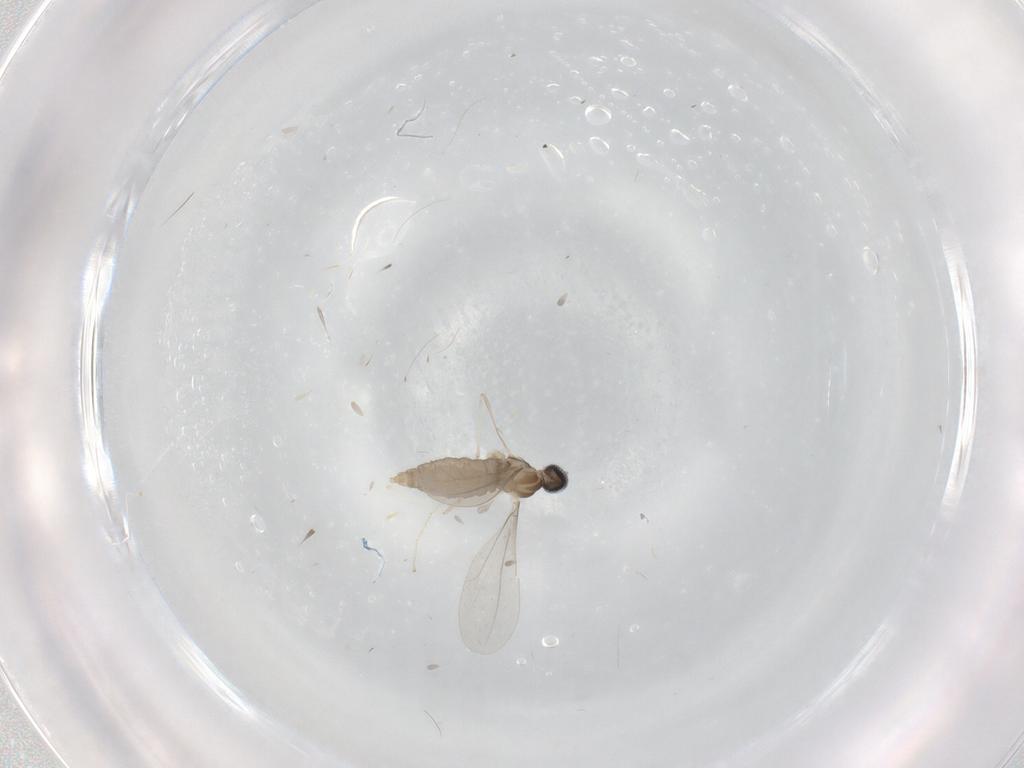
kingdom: Animalia
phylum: Arthropoda
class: Insecta
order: Diptera
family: Cecidomyiidae
